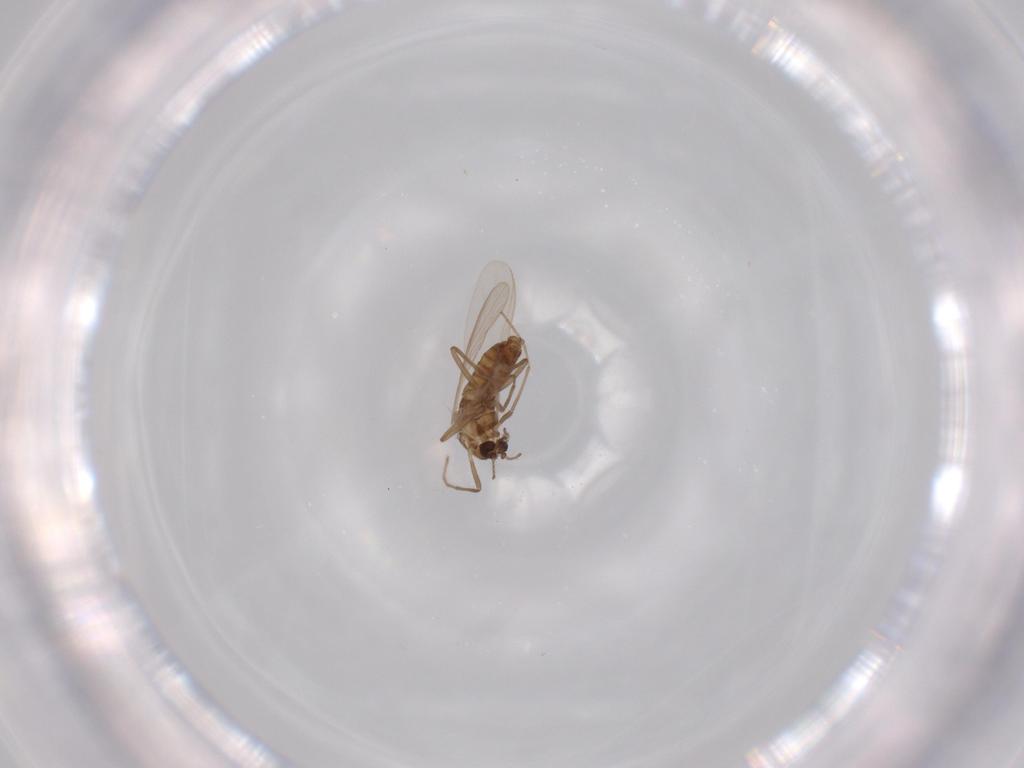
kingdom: Animalia
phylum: Arthropoda
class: Insecta
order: Diptera
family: Chironomidae
